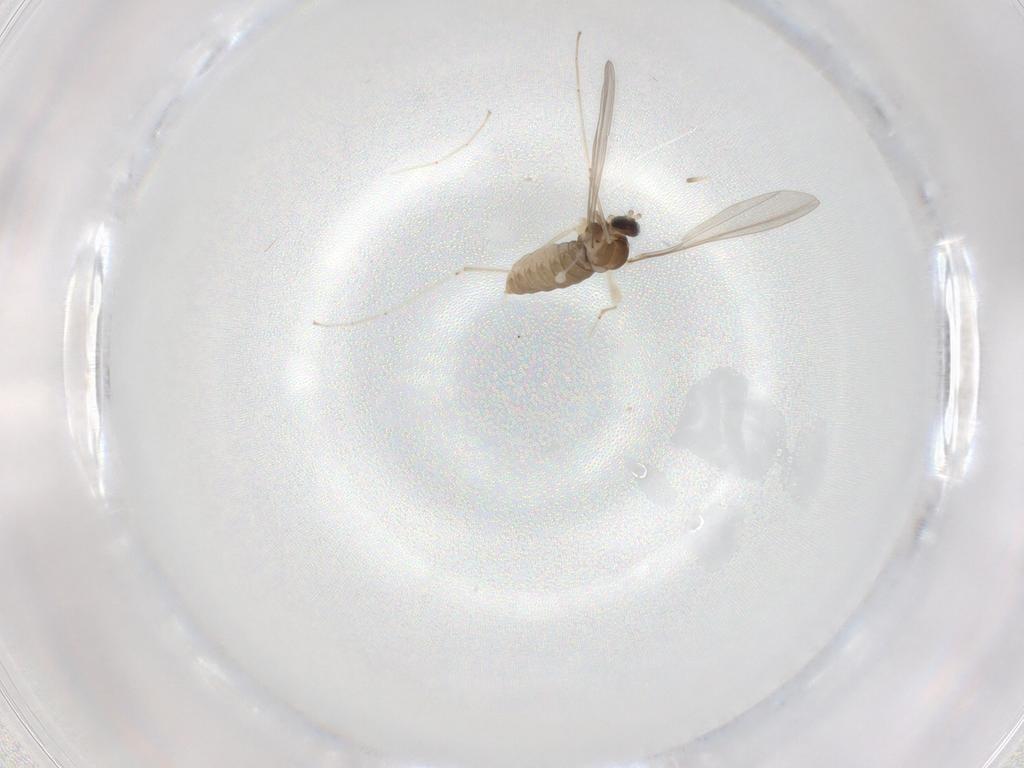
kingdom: Animalia
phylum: Arthropoda
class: Insecta
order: Diptera
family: Cecidomyiidae
